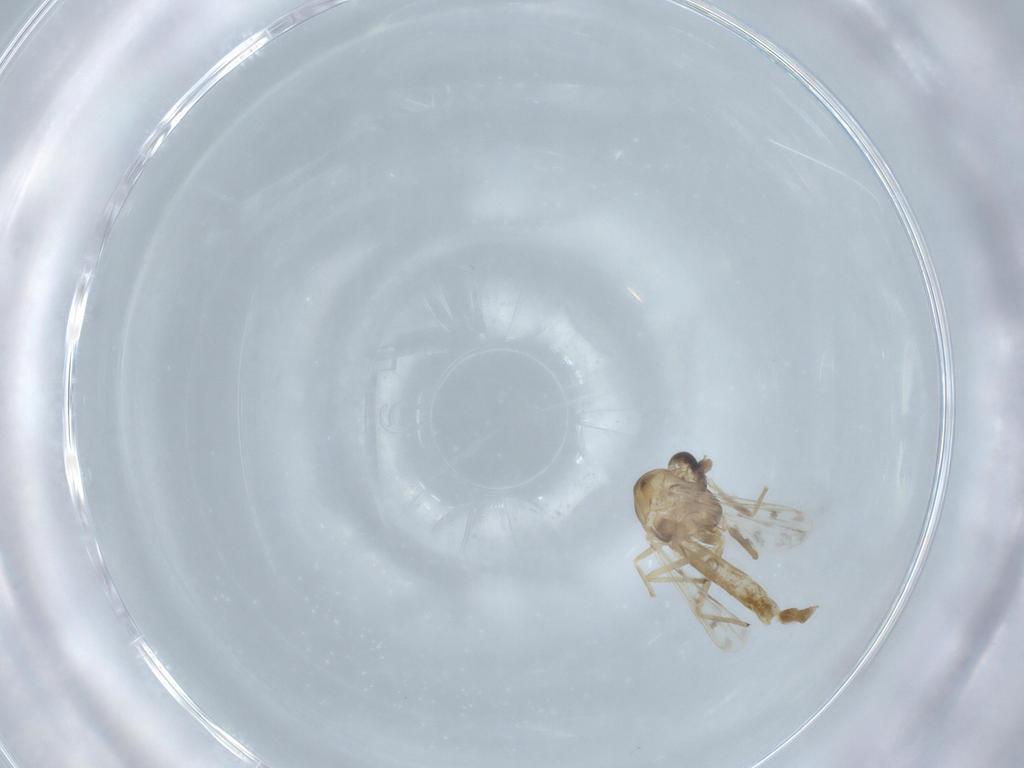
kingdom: Animalia
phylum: Arthropoda
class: Insecta
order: Diptera
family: Chironomidae
